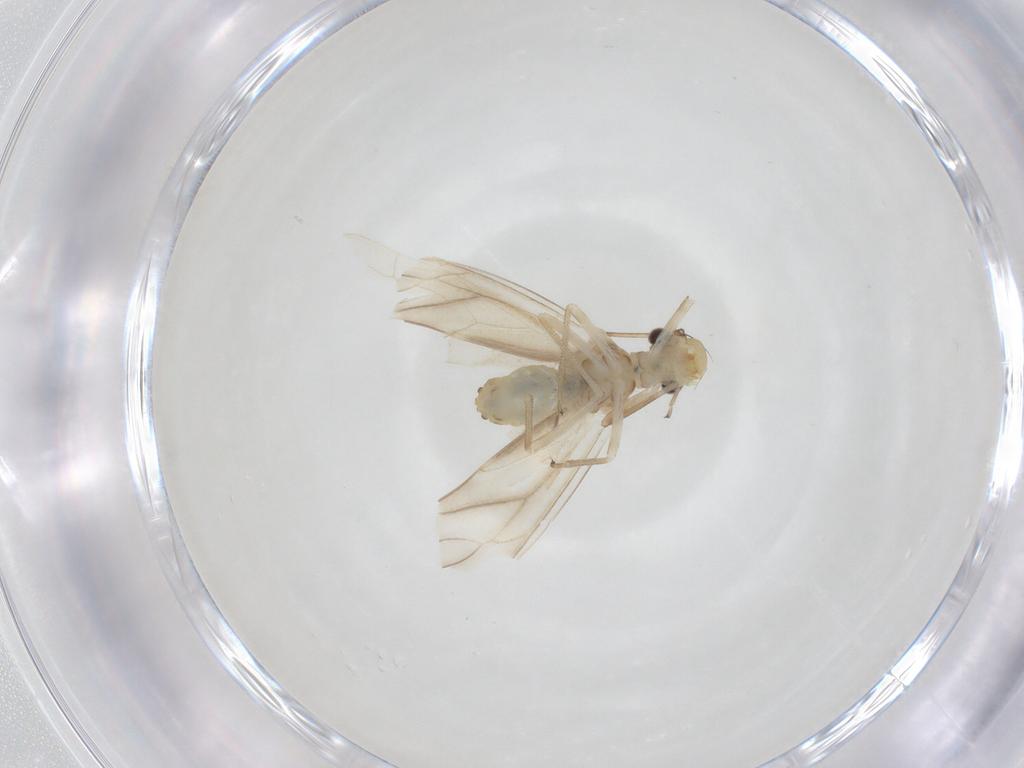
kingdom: Animalia
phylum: Arthropoda
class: Insecta
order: Psocodea
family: Caeciliusidae
